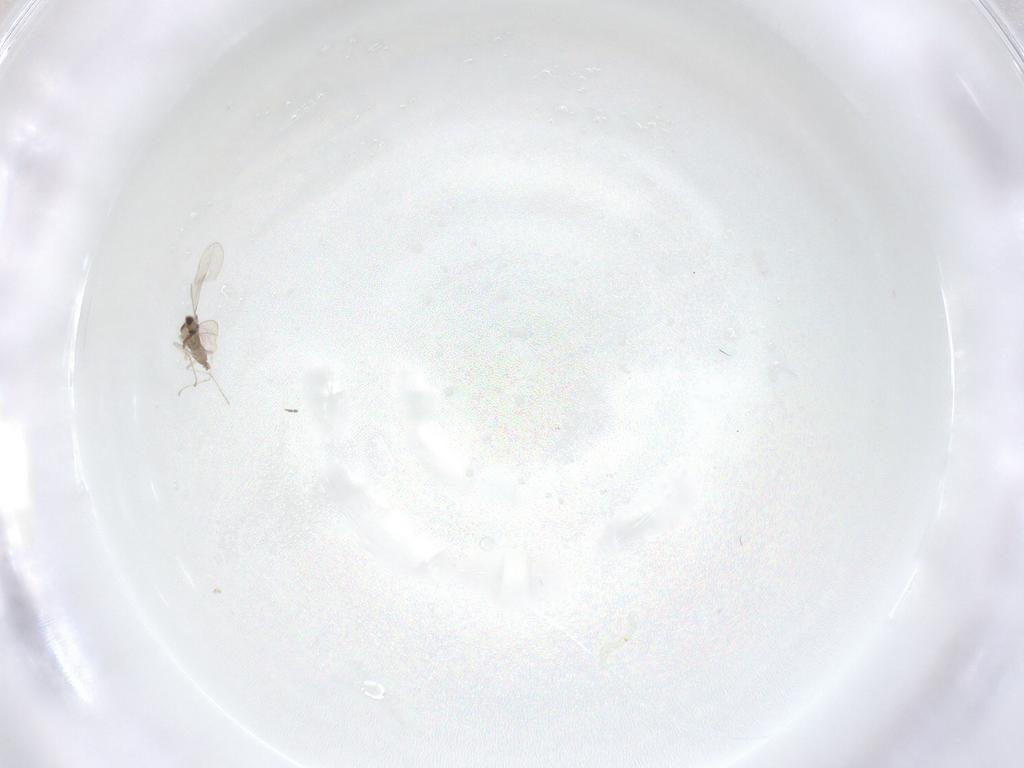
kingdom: Animalia
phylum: Arthropoda
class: Insecta
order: Diptera
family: Cecidomyiidae
